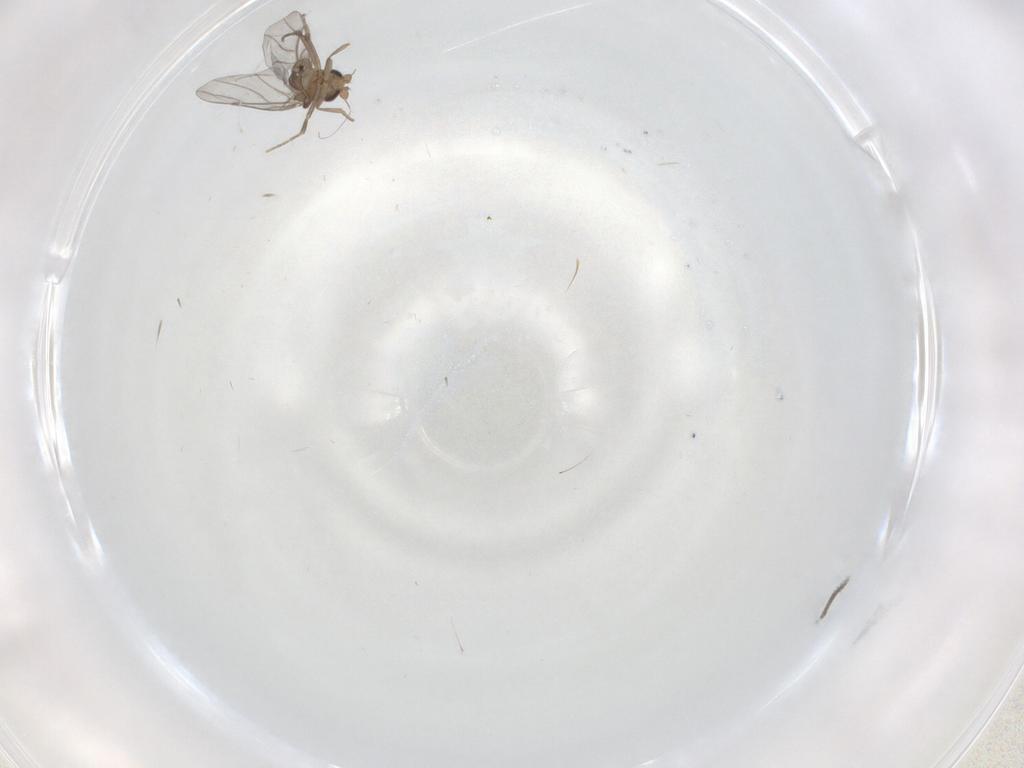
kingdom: Animalia
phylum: Arthropoda
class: Insecta
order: Diptera
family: Sciaridae
